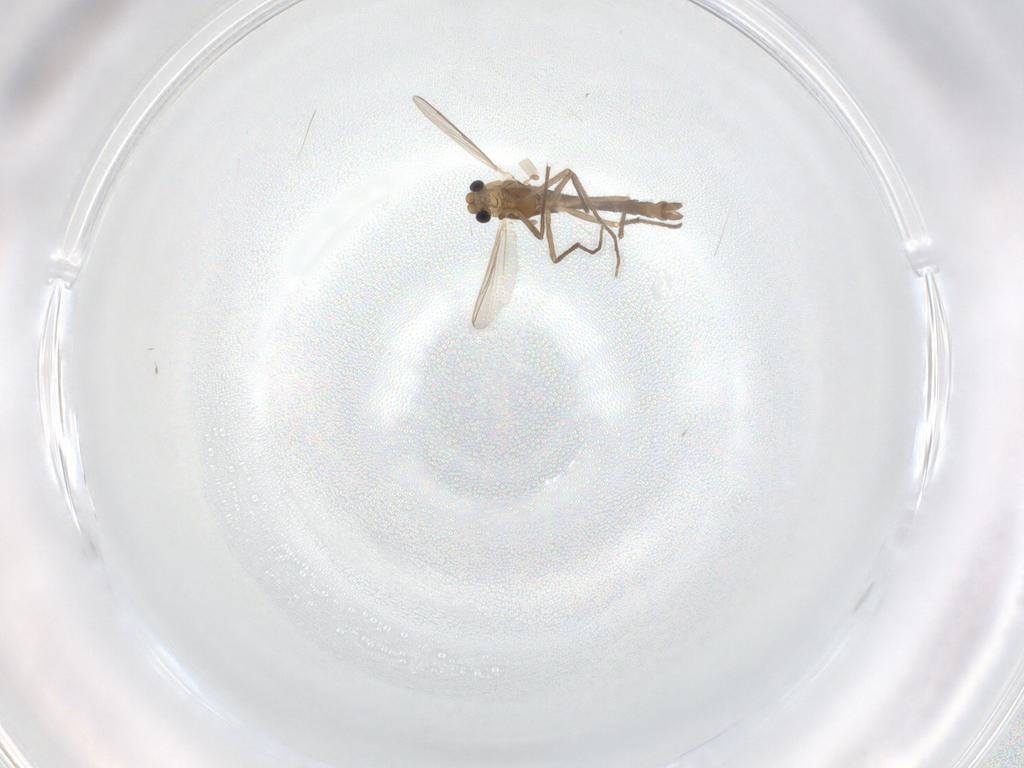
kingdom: Animalia
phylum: Arthropoda
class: Insecta
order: Diptera
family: Chironomidae
